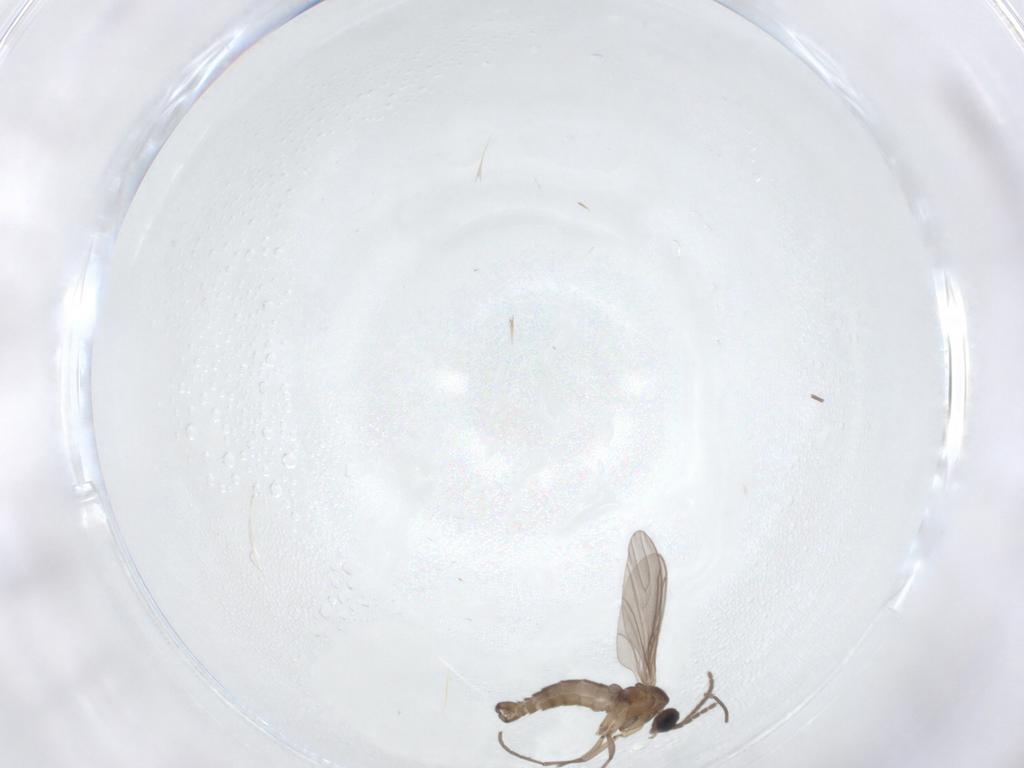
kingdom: Animalia
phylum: Arthropoda
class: Insecta
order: Diptera
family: Sciaridae
